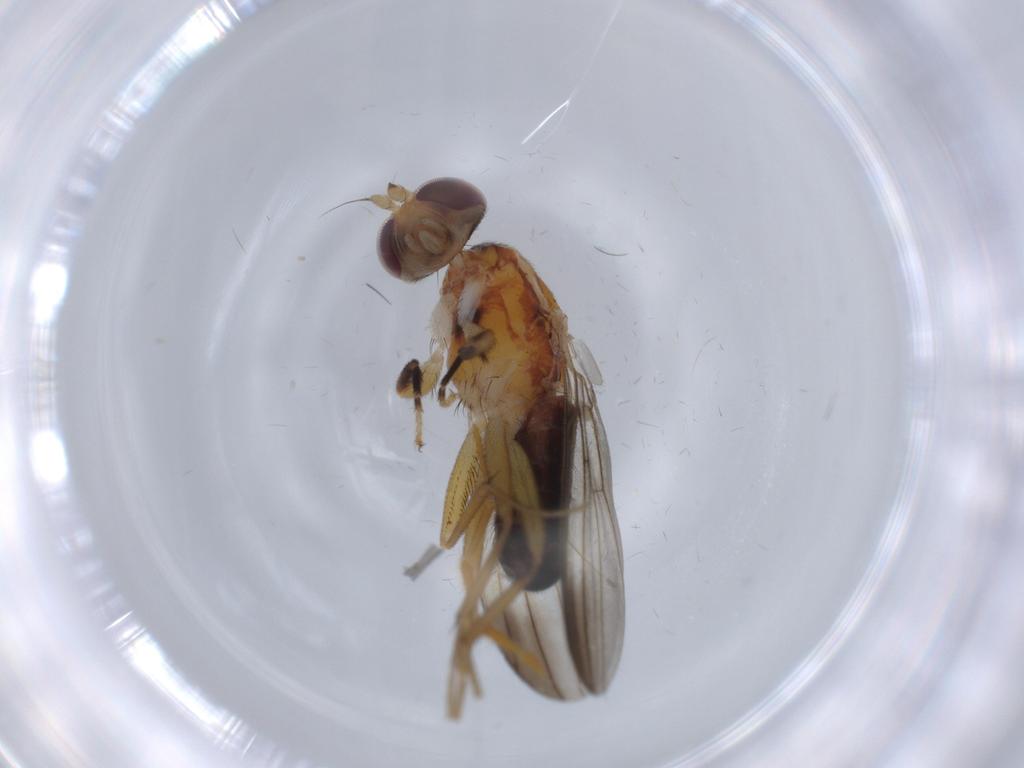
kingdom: Animalia
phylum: Arthropoda
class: Insecta
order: Diptera
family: Clusiidae
